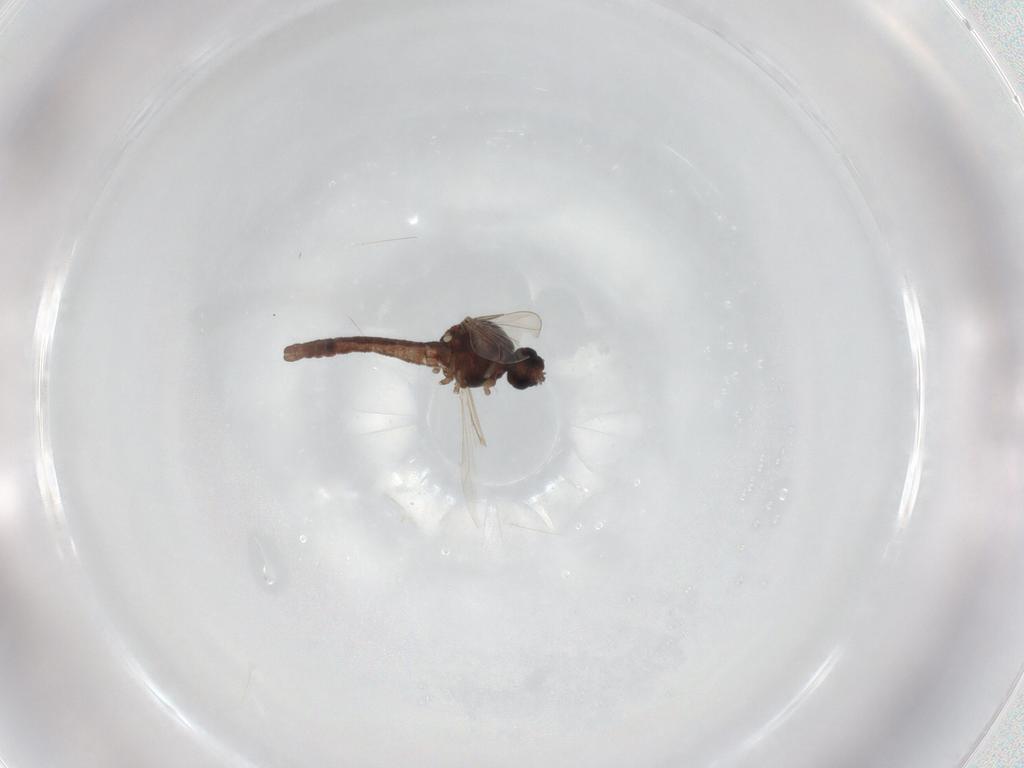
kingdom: Animalia
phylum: Arthropoda
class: Insecta
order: Diptera
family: Ceratopogonidae
